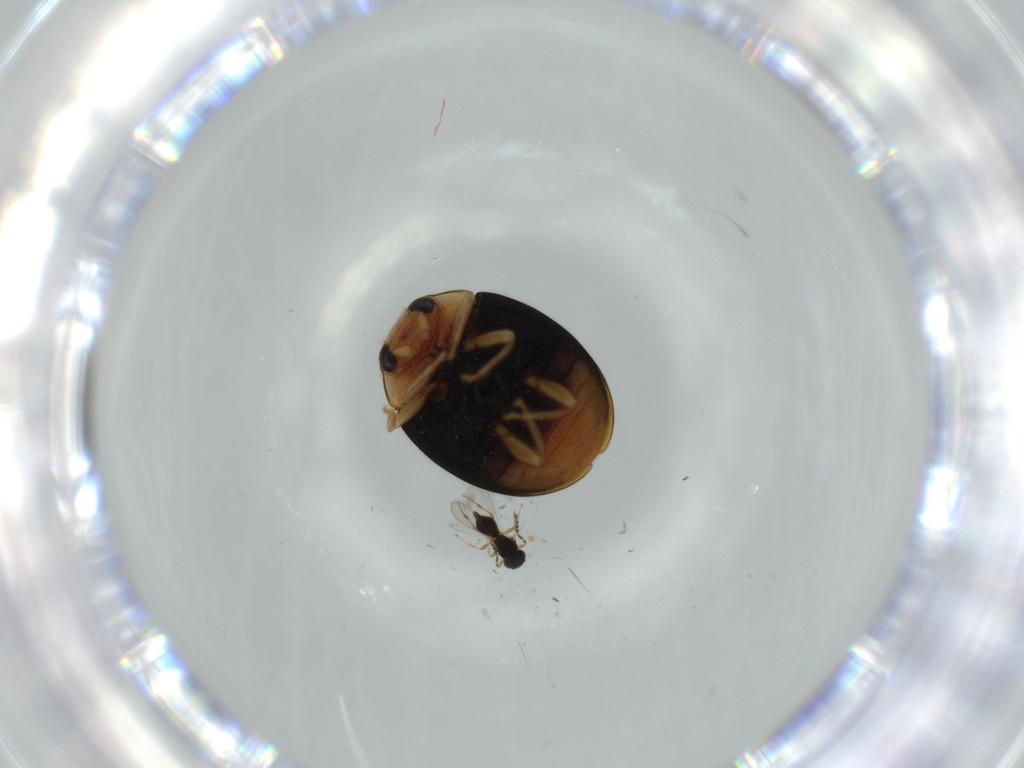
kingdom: Animalia
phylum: Arthropoda
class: Insecta
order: Coleoptera
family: Coccinellidae
